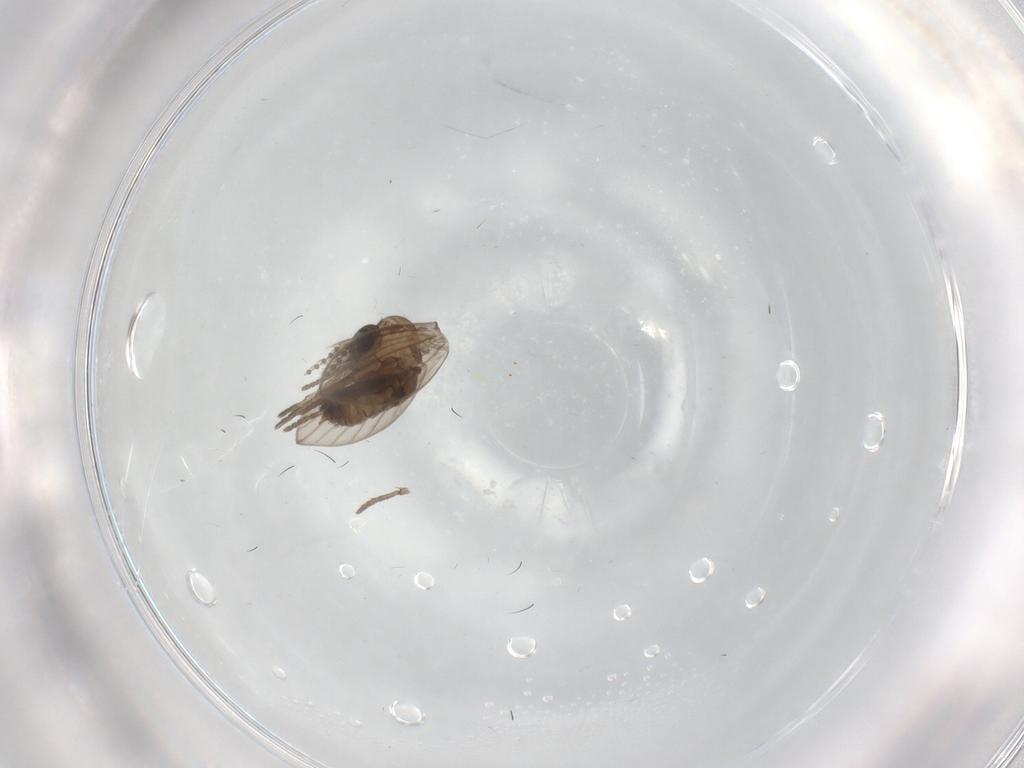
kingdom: Animalia
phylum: Arthropoda
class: Insecta
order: Diptera
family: Psychodidae
